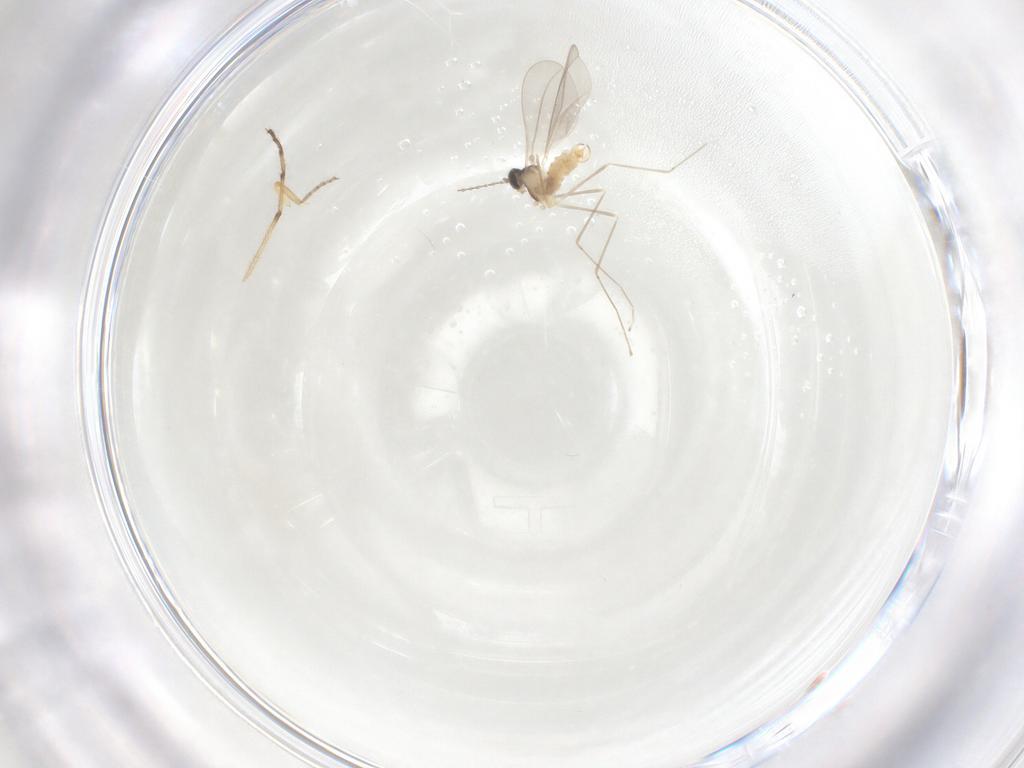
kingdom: Animalia
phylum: Arthropoda
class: Insecta
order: Diptera
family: Cecidomyiidae
